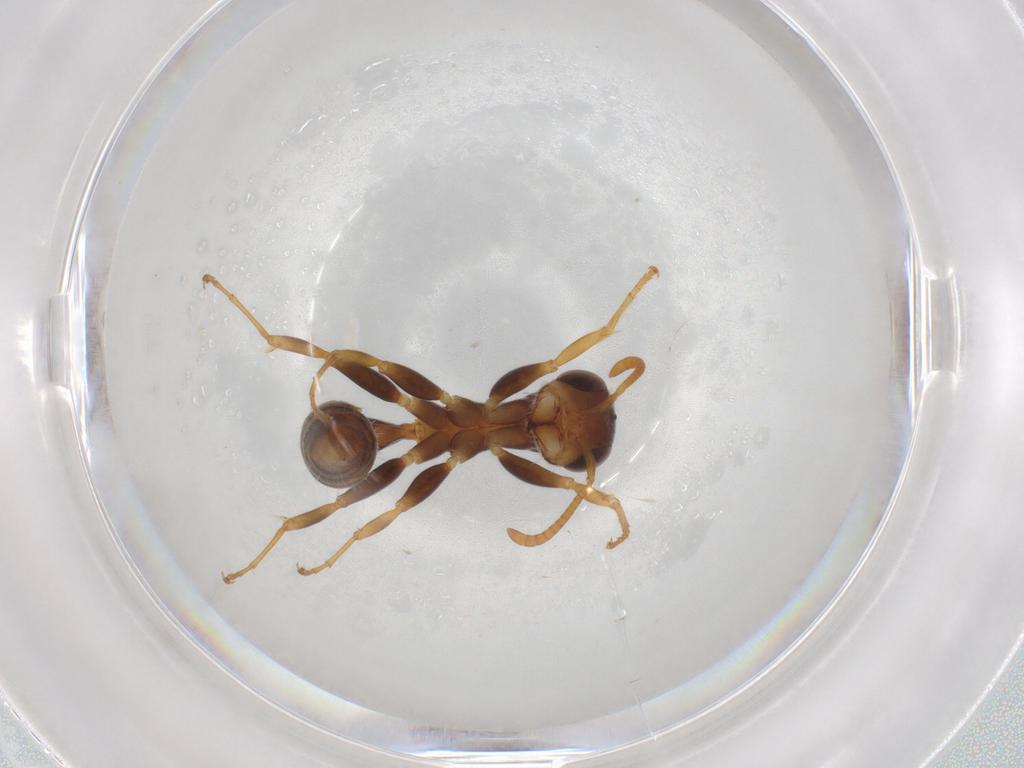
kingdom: Animalia
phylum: Arthropoda
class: Insecta
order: Hymenoptera
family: Formicidae
